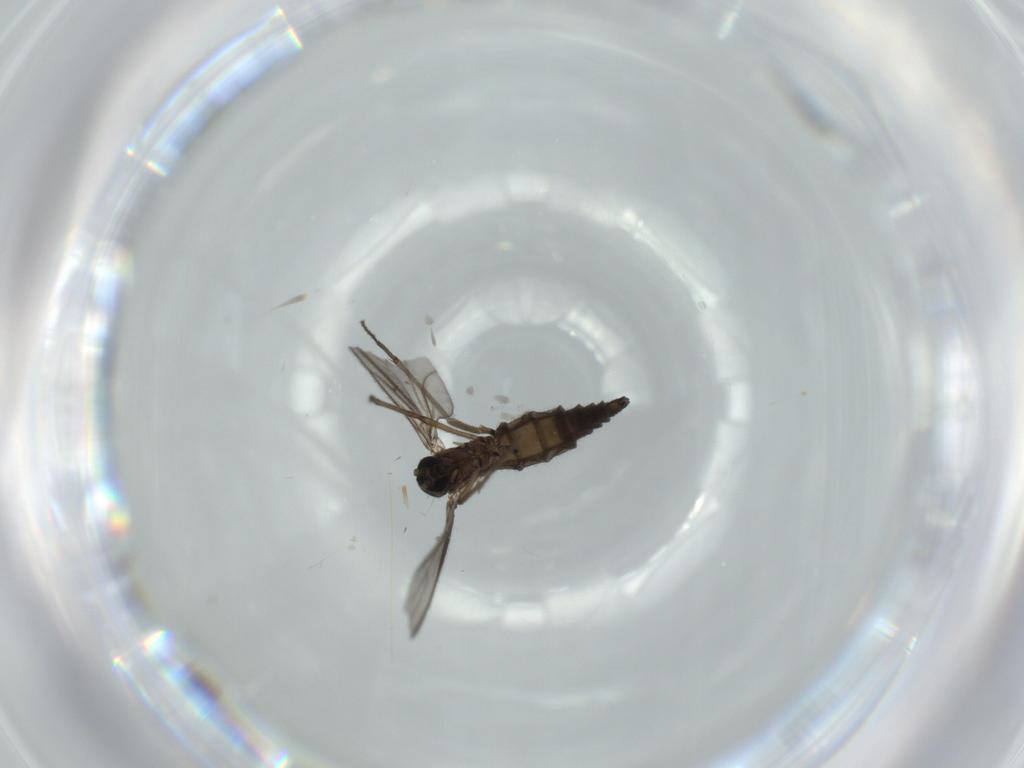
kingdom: Animalia
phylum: Arthropoda
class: Insecta
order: Diptera
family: Sciaridae
